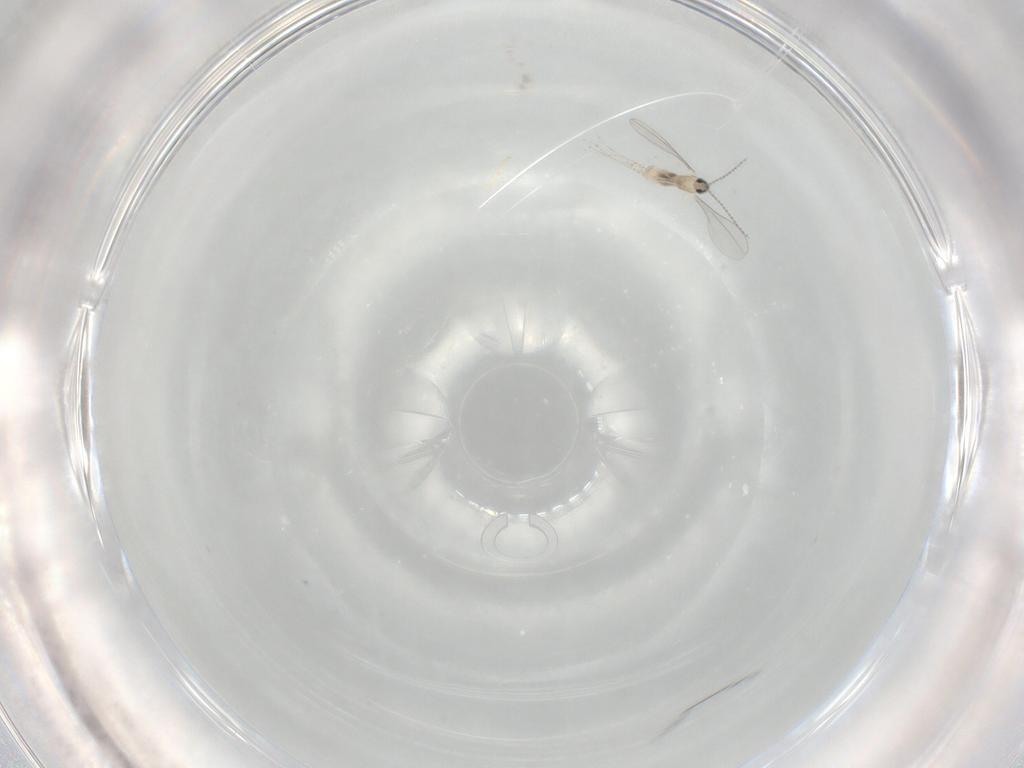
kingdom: Animalia
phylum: Arthropoda
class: Insecta
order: Diptera
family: Cecidomyiidae
